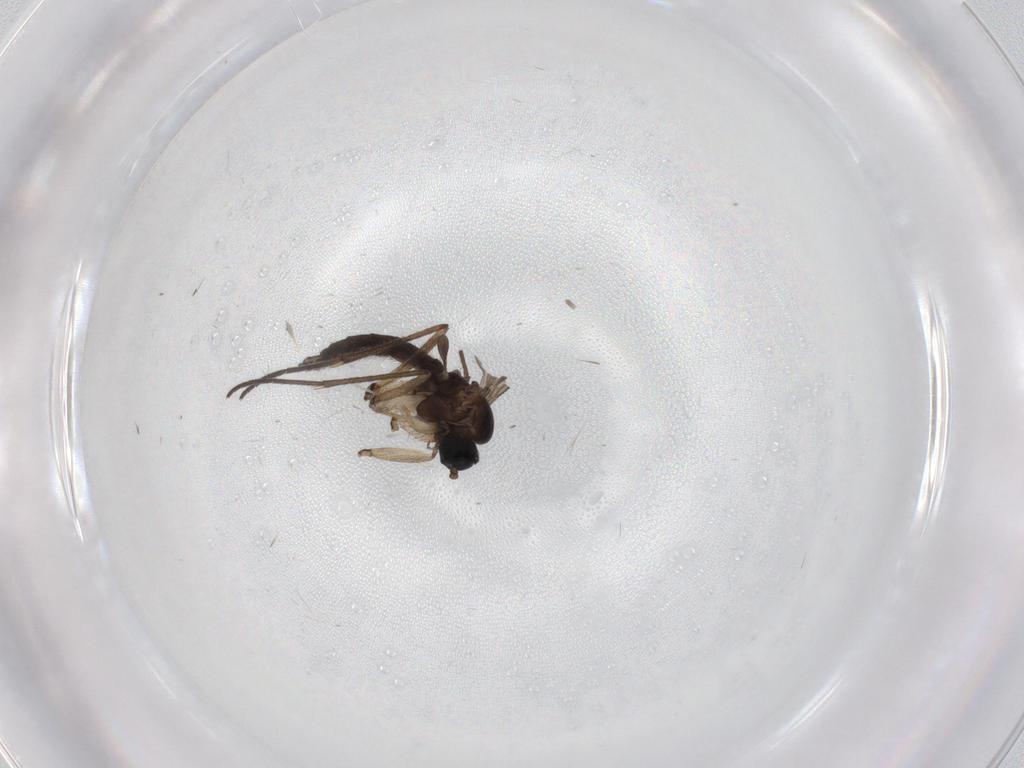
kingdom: Animalia
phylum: Arthropoda
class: Insecta
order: Diptera
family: Cecidomyiidae
